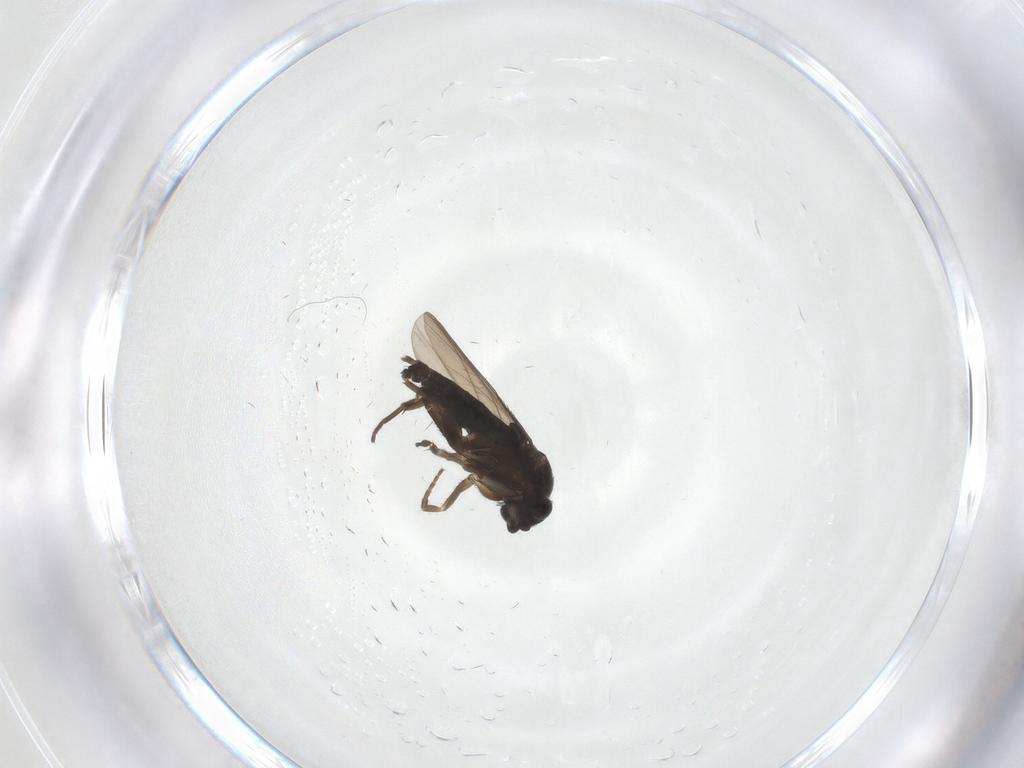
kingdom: Animalia
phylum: Arthropoda
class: Insecta
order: Diptera
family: Phoridae
